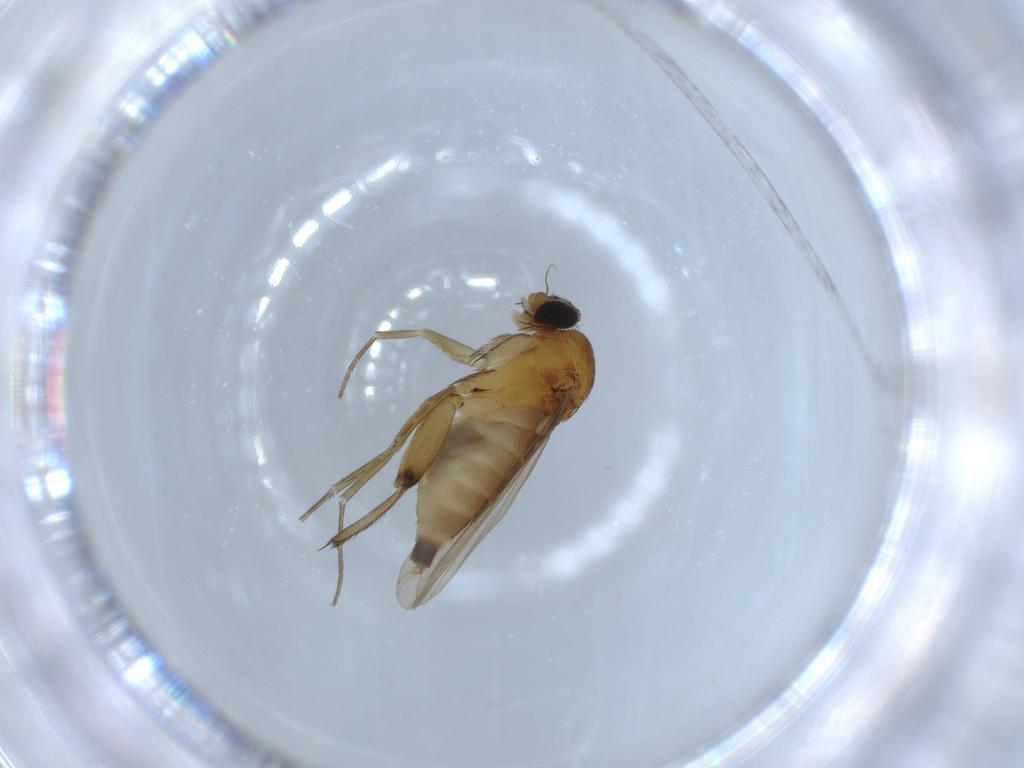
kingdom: Animalia
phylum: Arthropoda
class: Insecta
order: Diptera
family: Phoridae
